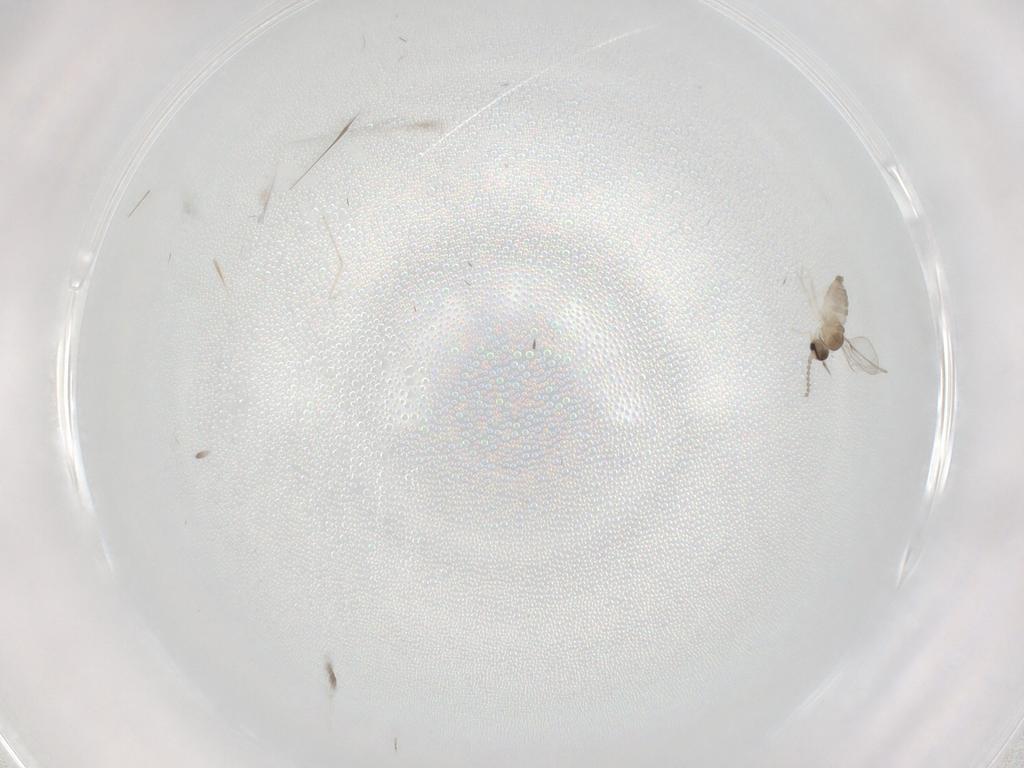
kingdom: Animalia
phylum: Arthropoda
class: Insecta
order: Diptera
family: Cecidomyiidae
